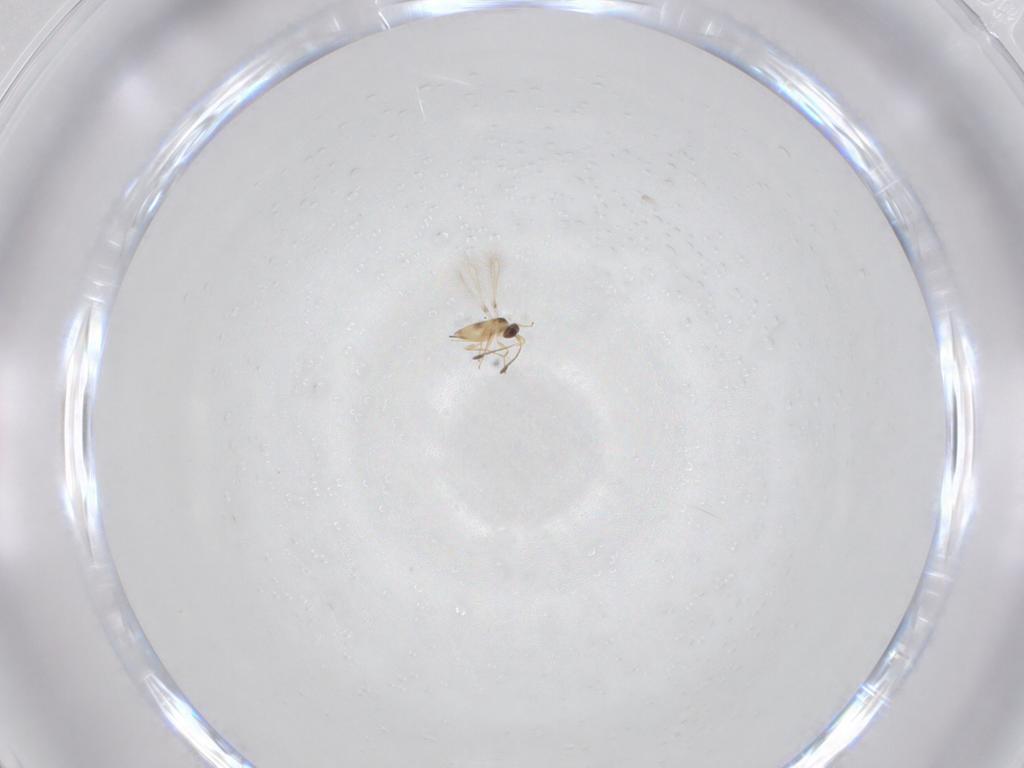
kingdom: Animalia
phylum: Arthropoda
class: Insecta
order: Hymenoptera
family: Mymaridae
